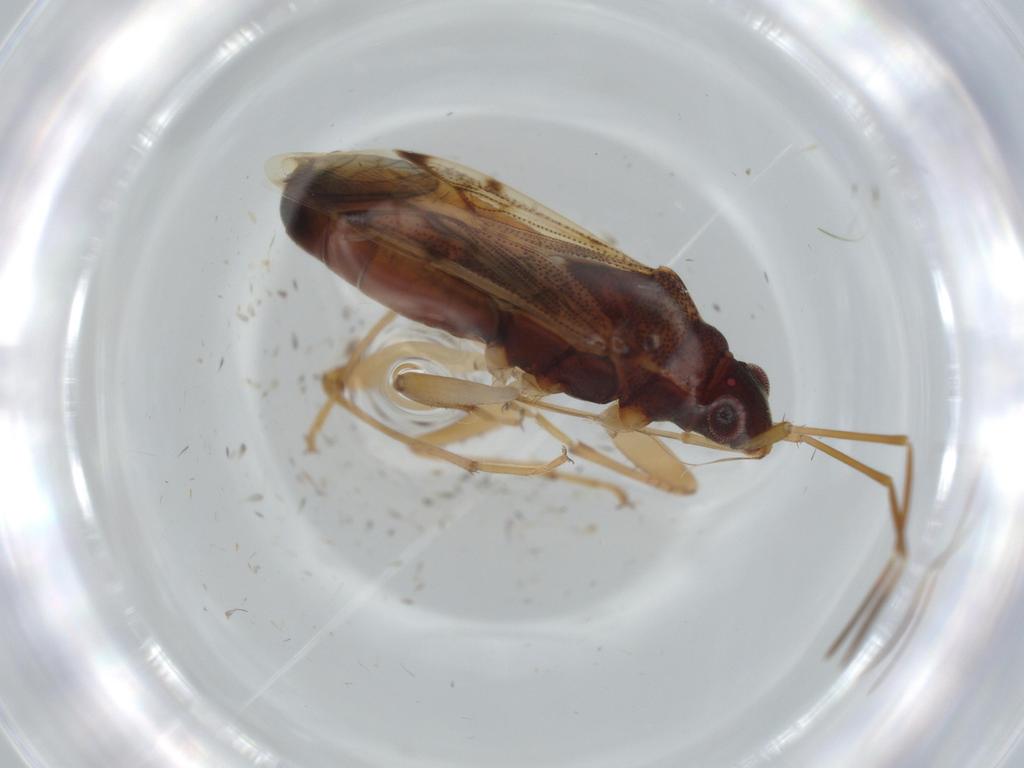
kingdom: Animalia
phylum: Arthropoda
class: Insecta
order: Hemiptera
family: Rhyparochromidae
